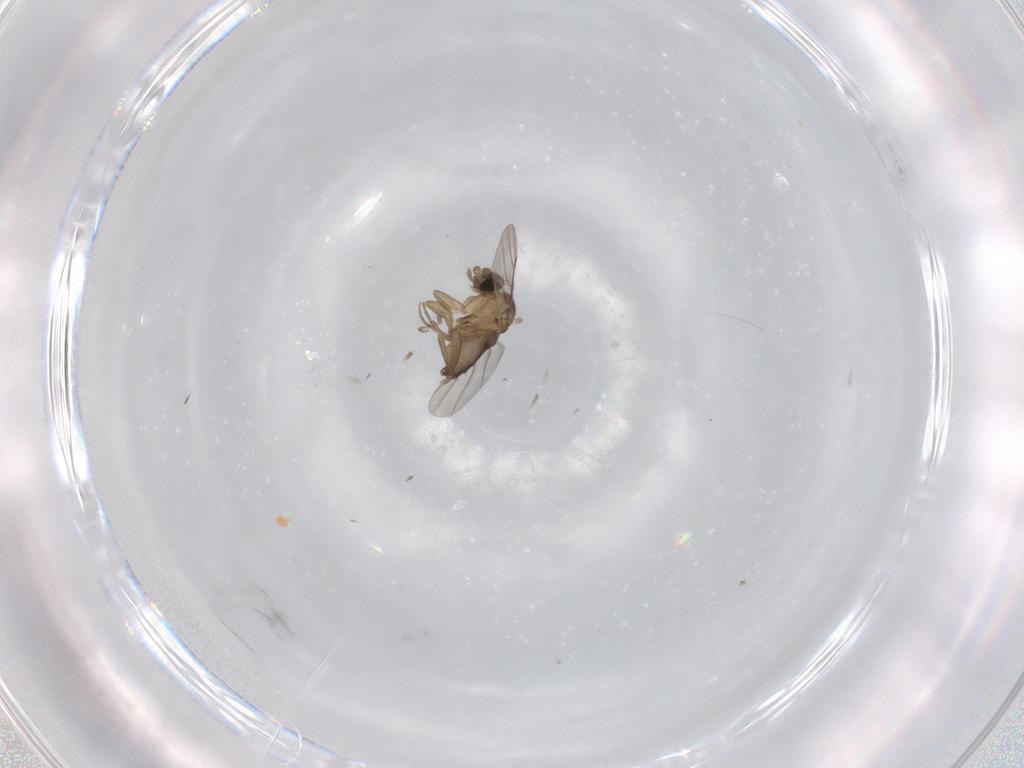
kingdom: Animalia
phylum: Arthropoda
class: Insecta
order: Diptera
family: Phoridae
